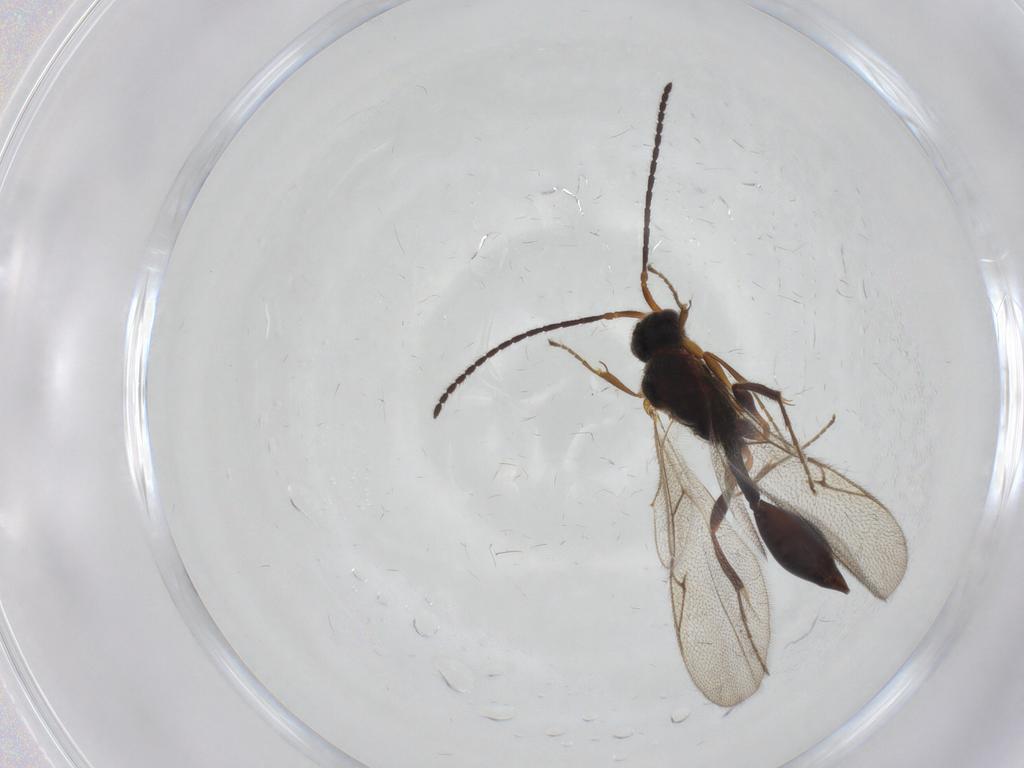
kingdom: Animalia
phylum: Arthropoda
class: Insecta
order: Hymenoptera
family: Diapriidae
